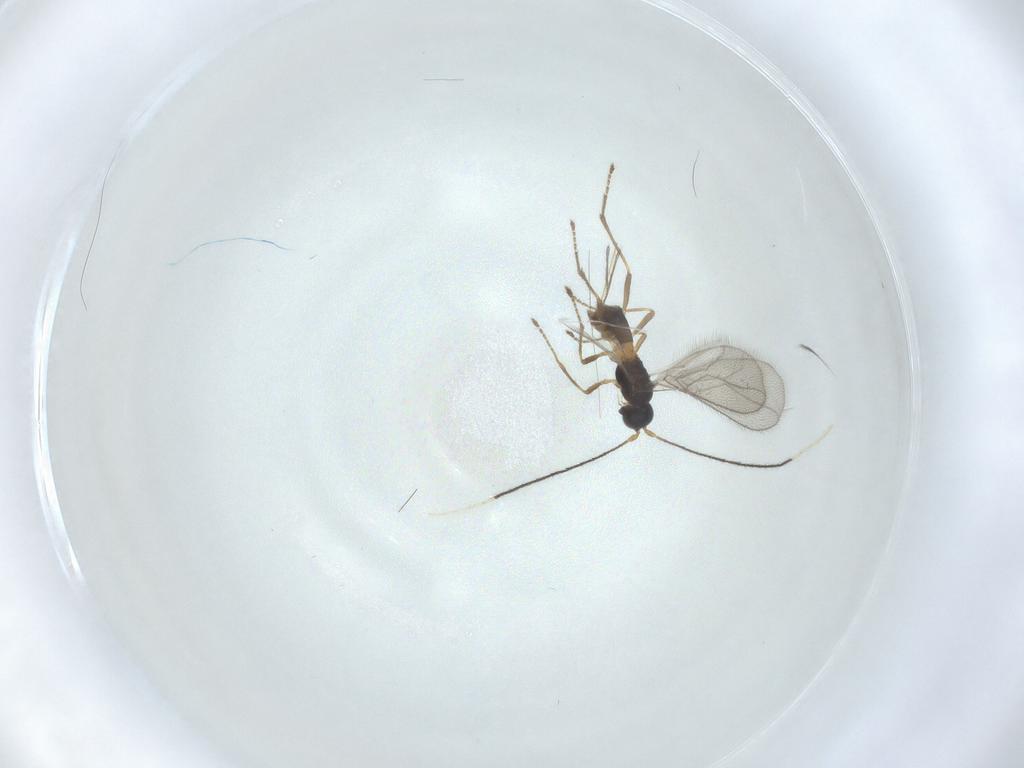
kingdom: Animalia
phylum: Arthropoda
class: Insecta
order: Hymenoptera
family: Braconidae
